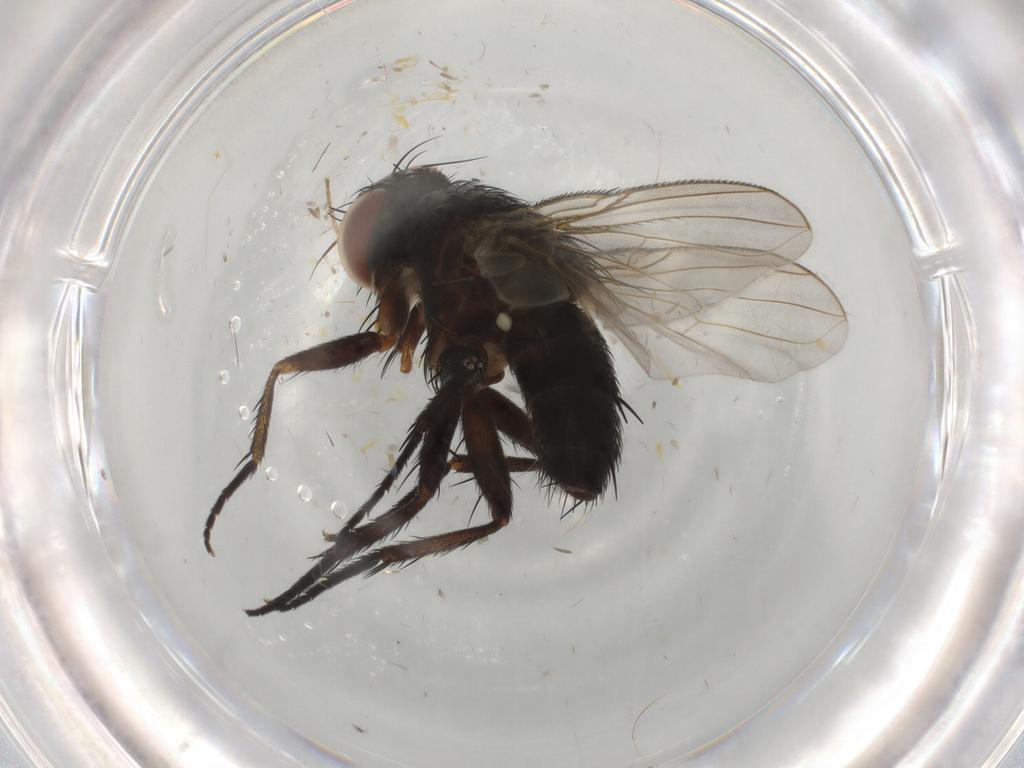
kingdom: Animalia
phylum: Arthropoda
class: Insecta
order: Diptera
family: Tachinidae
